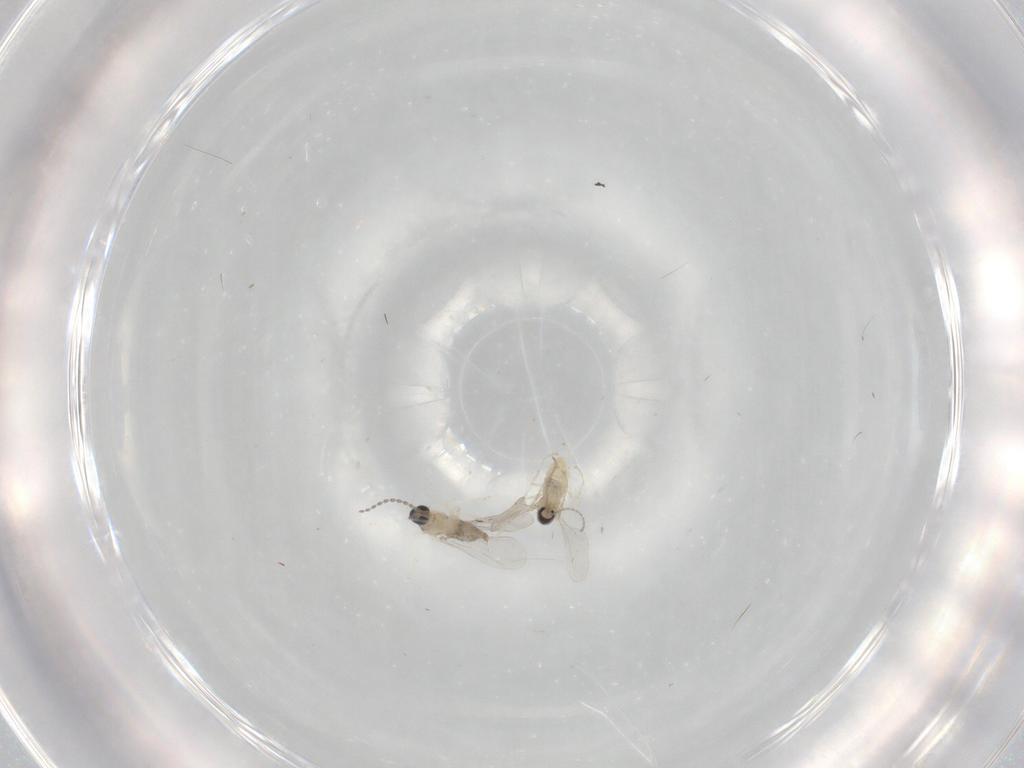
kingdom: Animalia
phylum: Arthropoda
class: Insecta
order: Diptera
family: Cecidomyiidae
